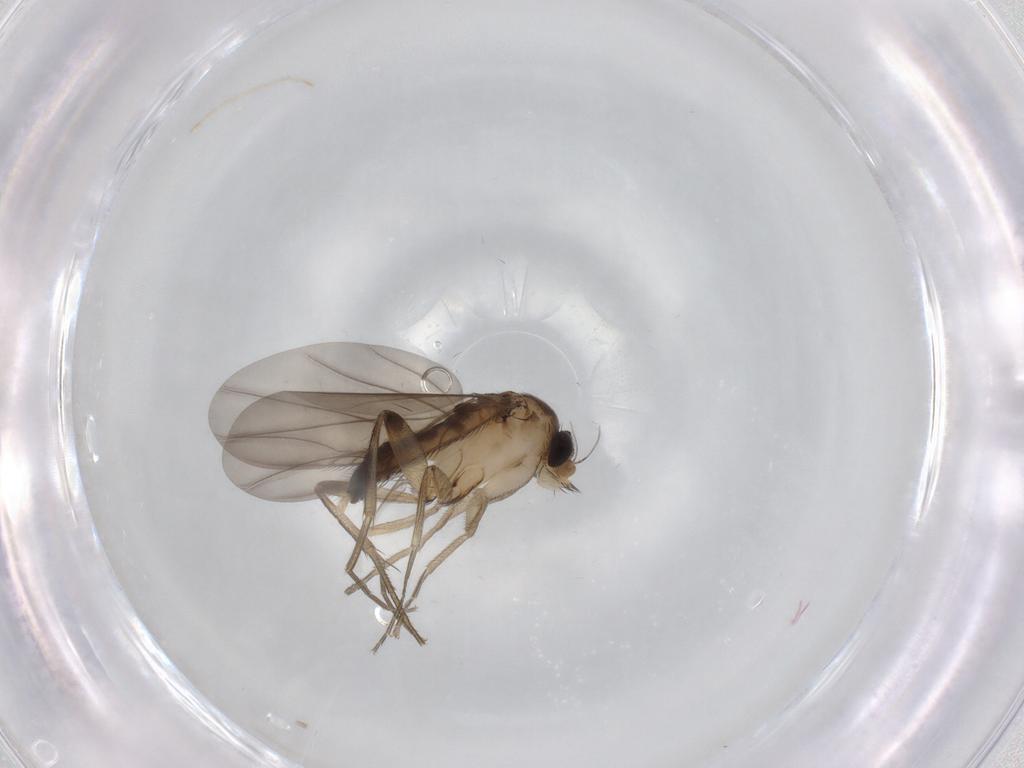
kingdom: Animalia
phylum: Arthropoda
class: Insecta
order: Diptera
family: Phoridae
